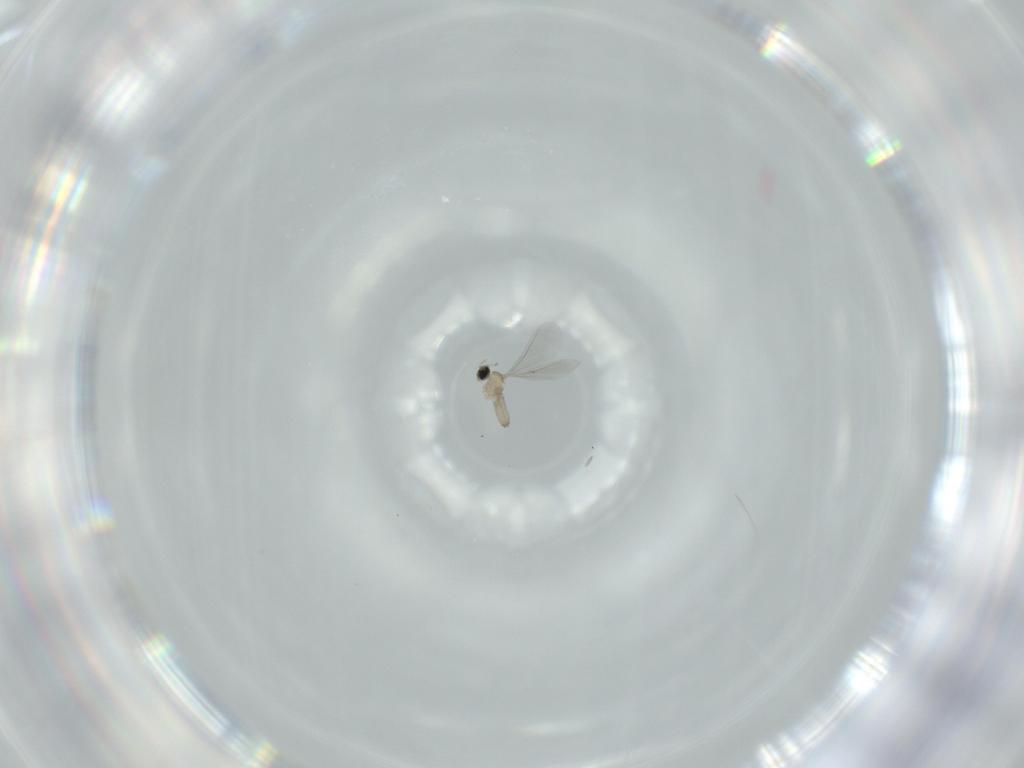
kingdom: Animalia
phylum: Arthropoda
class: Insecta
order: Diptera
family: Cecidomyiidae
